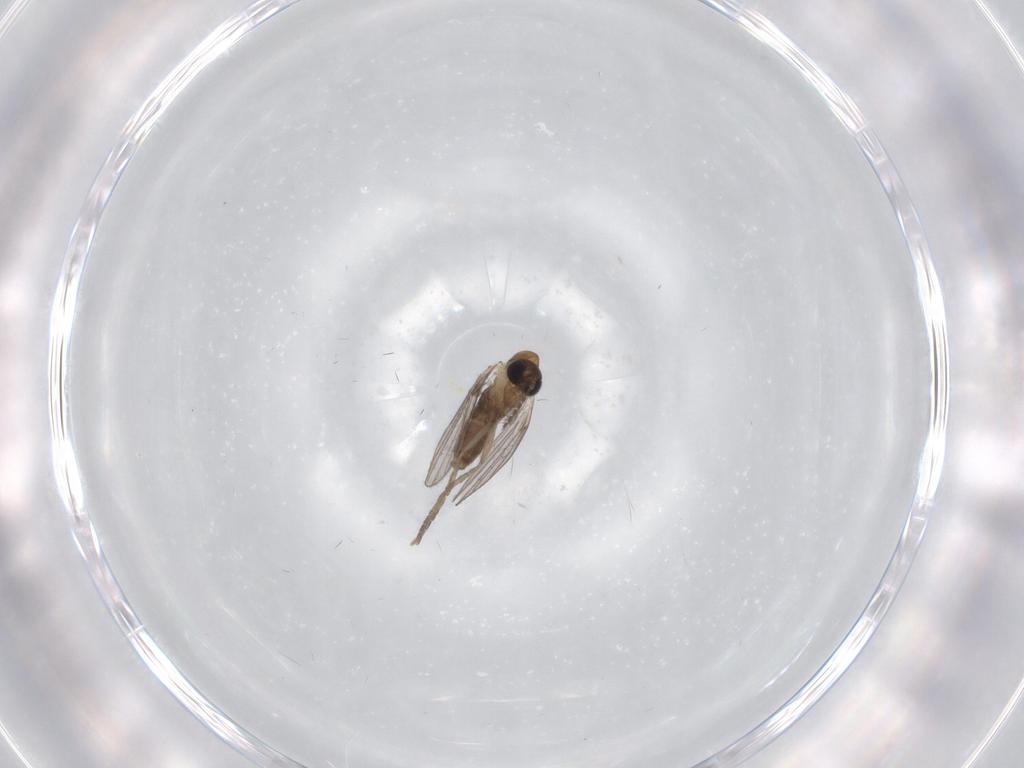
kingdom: Animalia
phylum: Arthropoda
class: Insecta
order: Diptera
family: Psychodidae
